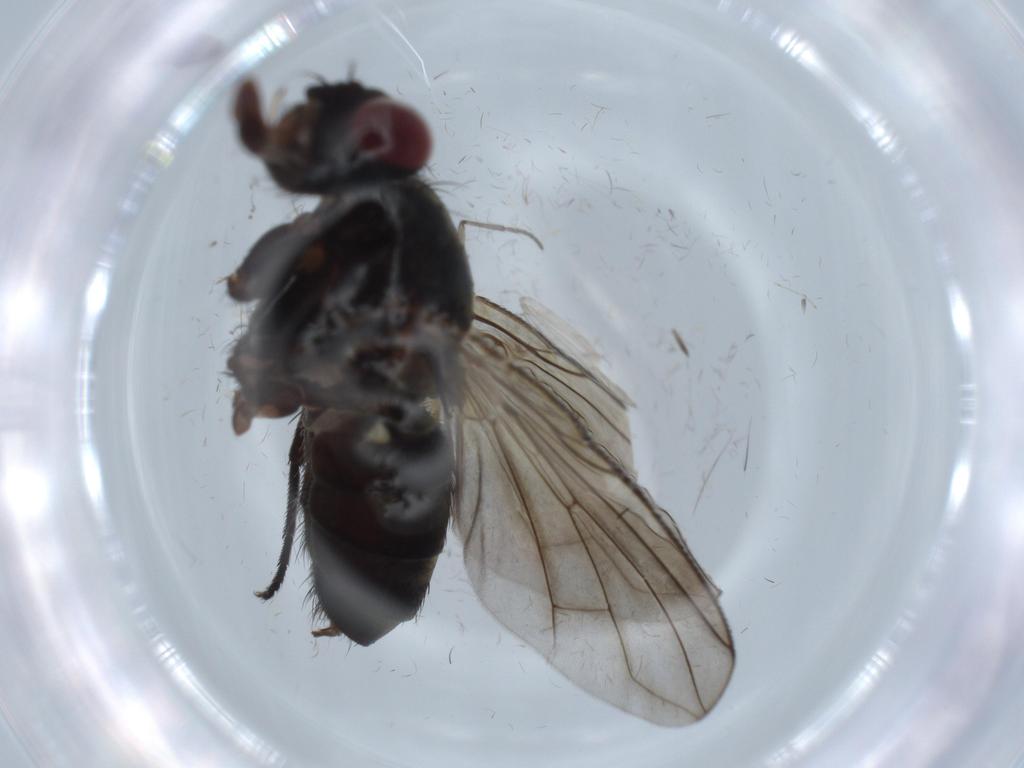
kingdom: Animalia
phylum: Arthropoda
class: Insecta
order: Diptera
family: Calliphoridae
